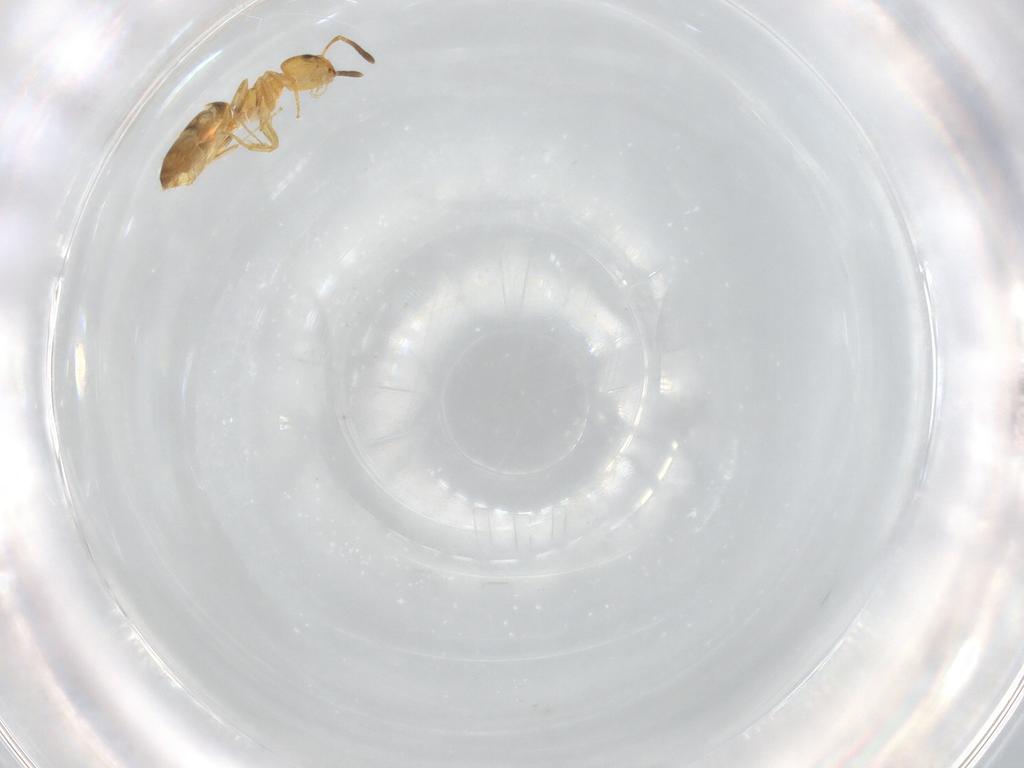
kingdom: Animalia
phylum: Arthropoda
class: Insecta
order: Hymenoptera
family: Formicidae
